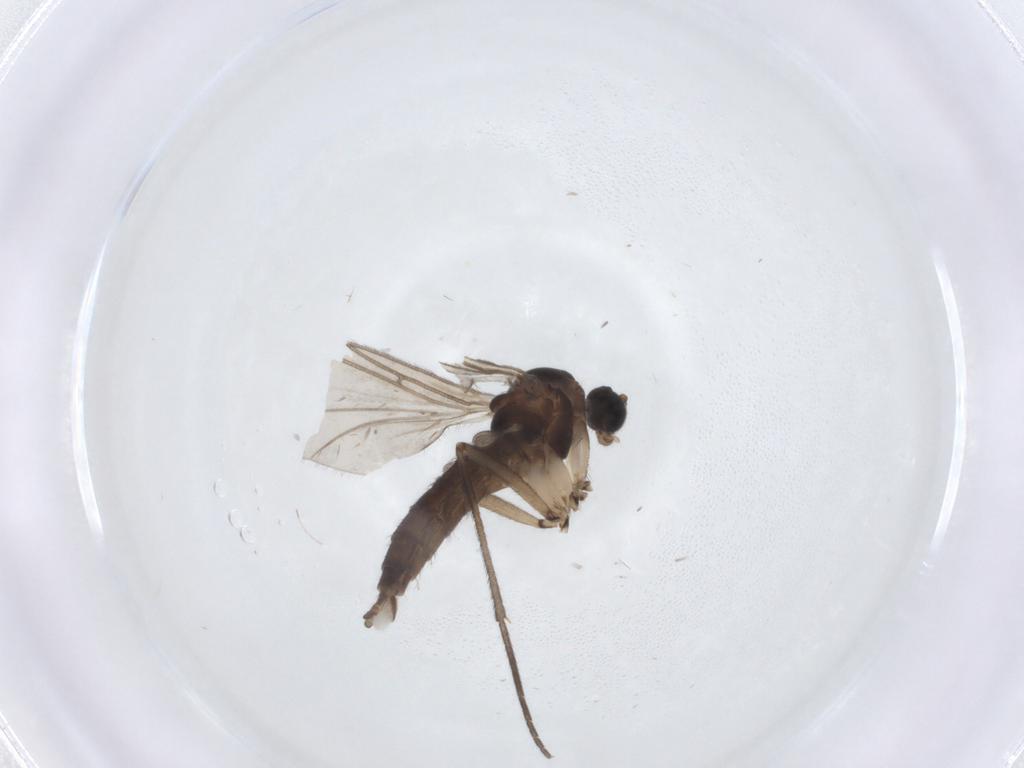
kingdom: Animalia
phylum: Arthropoda
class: Insecta
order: Diptera
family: Sciaridae
